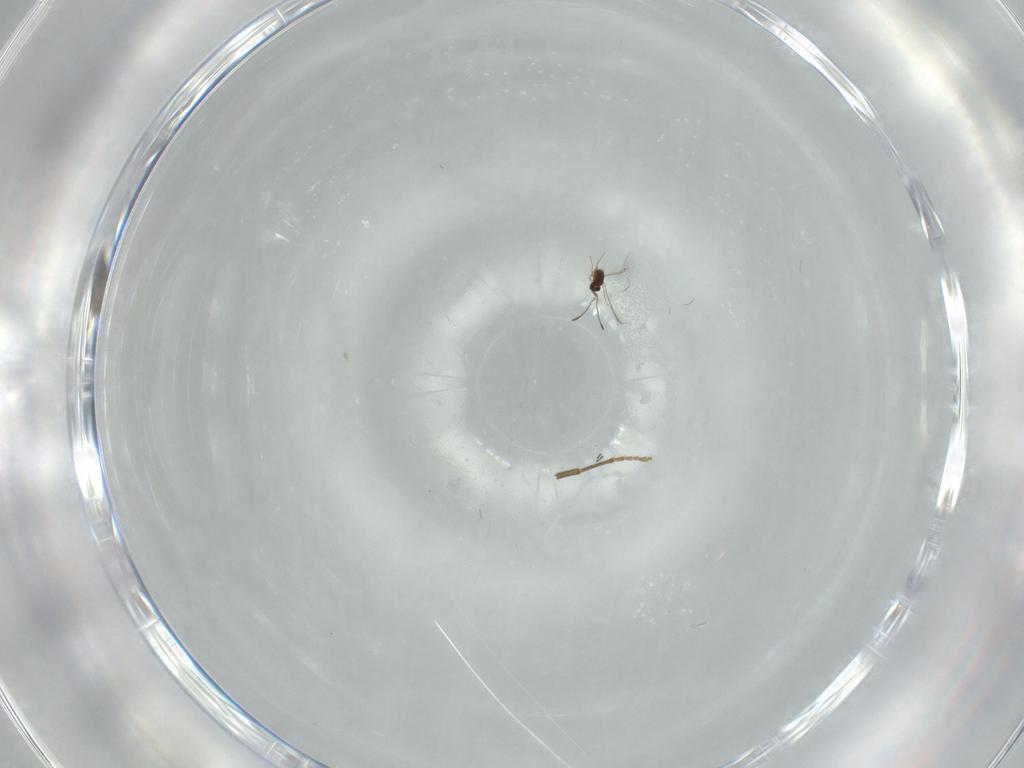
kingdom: Animalia
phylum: Arthropoda
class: Insecta
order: Hymenoptera
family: Formicidae
